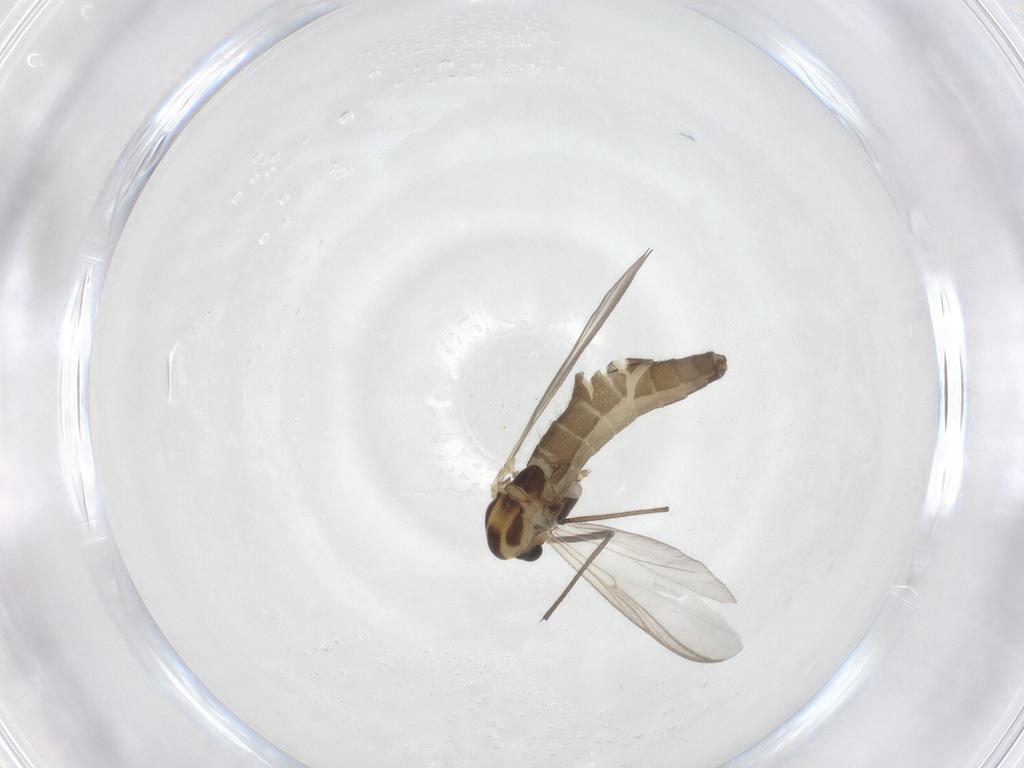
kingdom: Animalia
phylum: Arthropoda
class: Insecta
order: Diptera
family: Chironomidae
